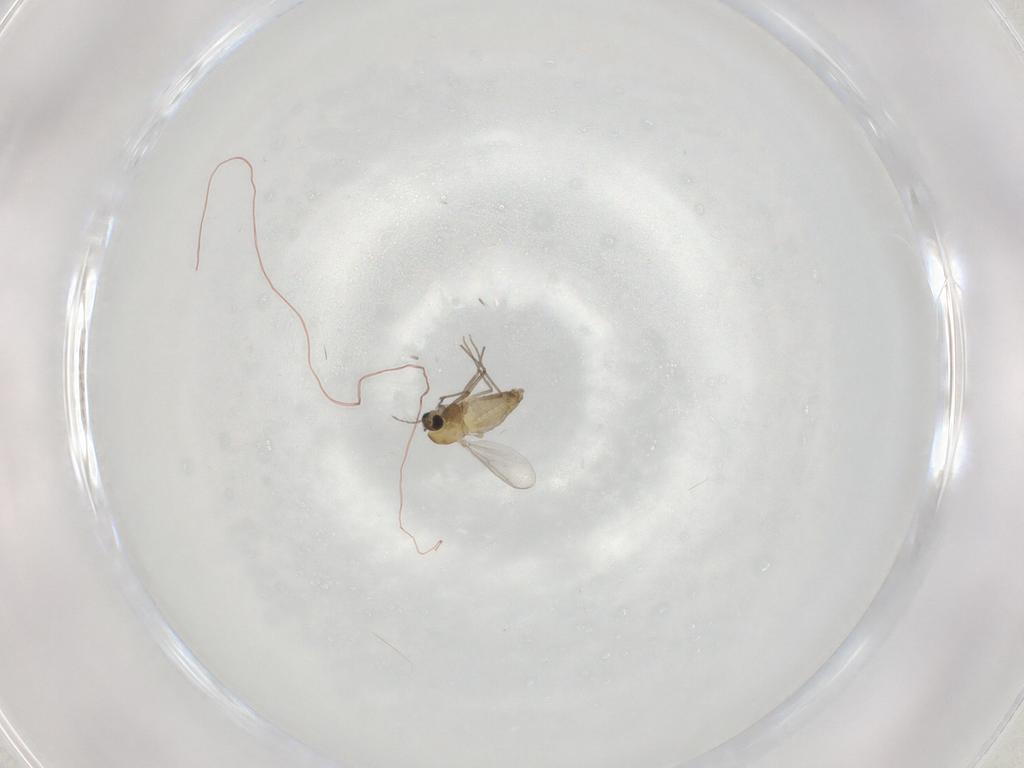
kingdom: Animalia
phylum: Arthropoda
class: Insecta
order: Diptera
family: Chironomidae
